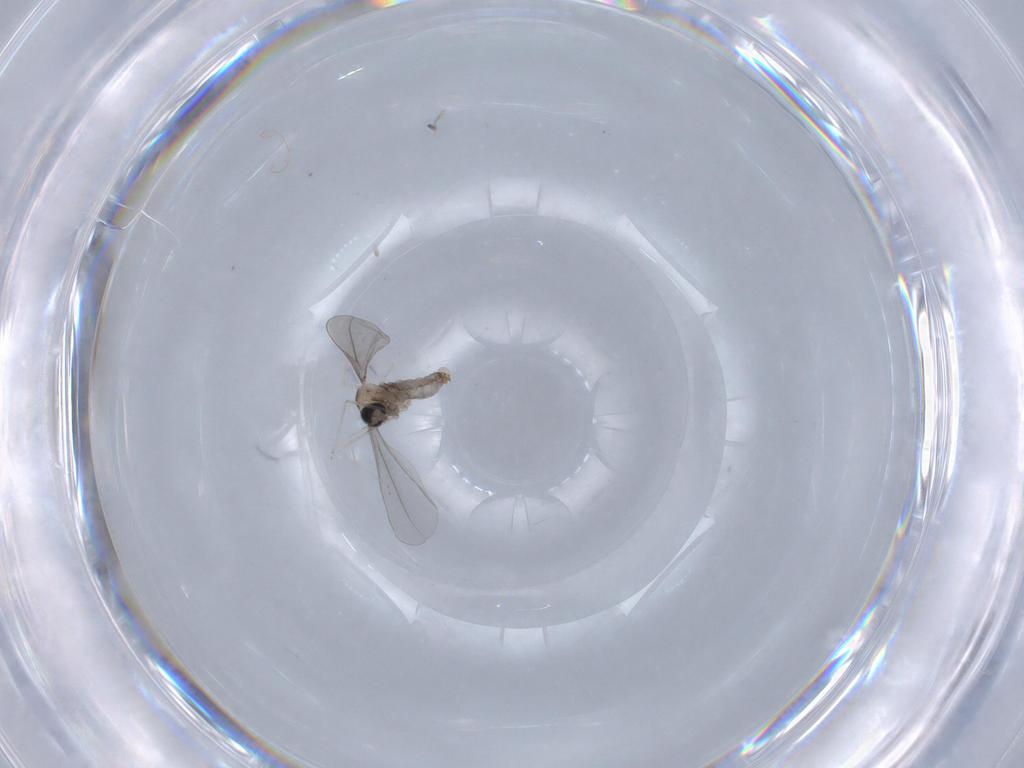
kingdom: Animalia
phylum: Arthropoda
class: Insecta
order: Diptera
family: Cecidomyiidae
